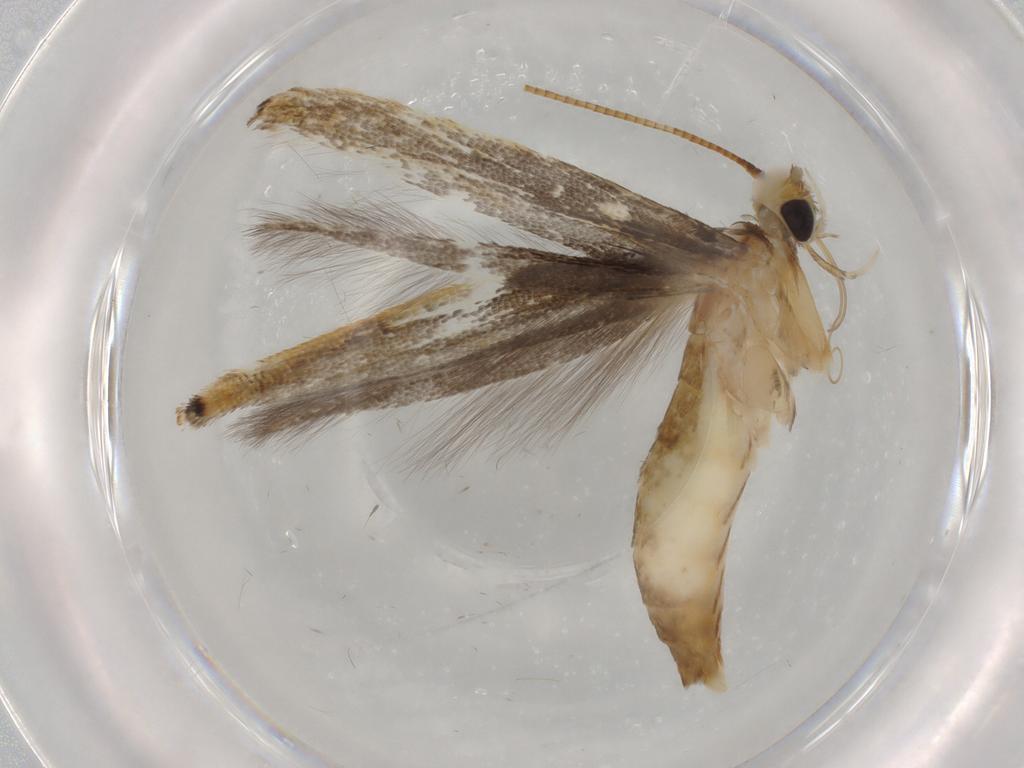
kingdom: Animalia
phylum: Arthropoda
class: Insecta
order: Lepidoptera
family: Gracillariidae
